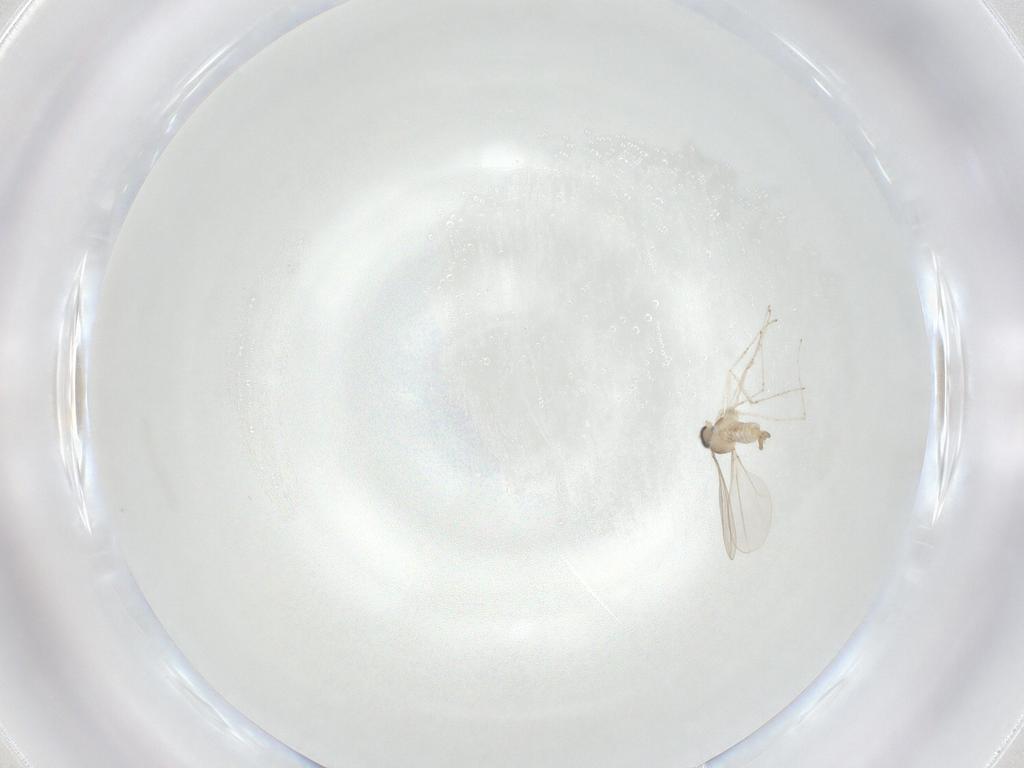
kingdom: Animalia
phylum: Arthropoda
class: Insecta
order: Diptera
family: Cecidomyiidae
